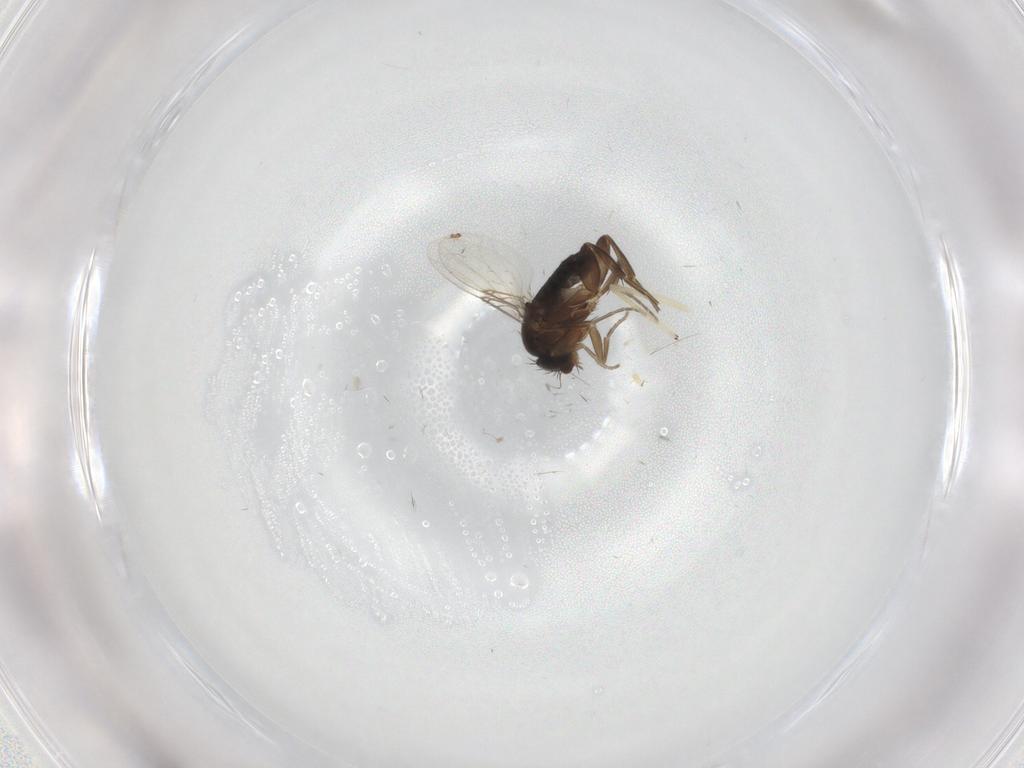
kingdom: Animalia
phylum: Arthropoda
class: Insecta
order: Diptera
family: Phoridae
